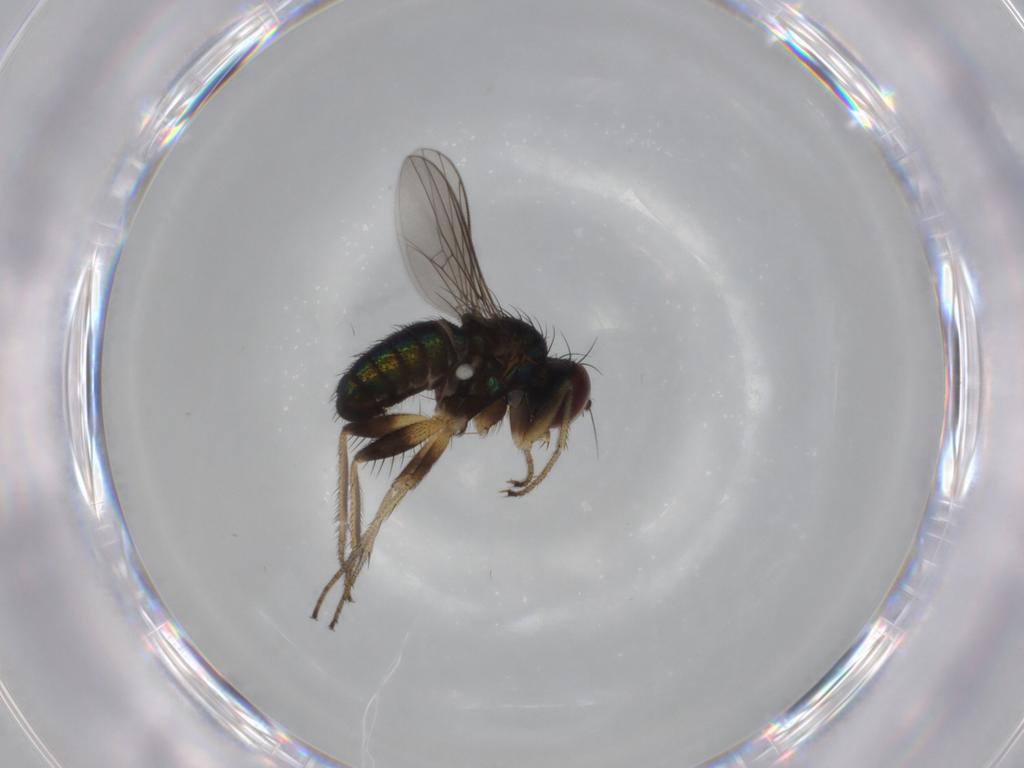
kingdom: Animalia
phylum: Arthropoda
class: Insecta
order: Diptera
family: Dolichopodidae
